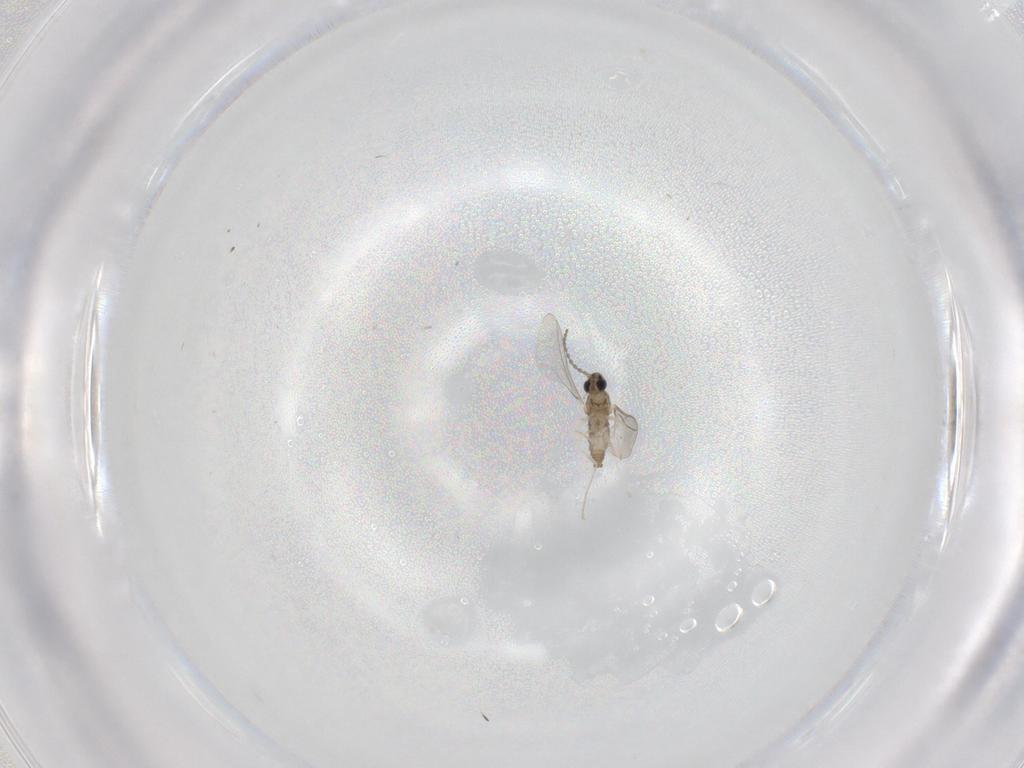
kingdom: Animalia
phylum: Arthropoda
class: Insecta
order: Diptera
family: Cecidomyiidae
